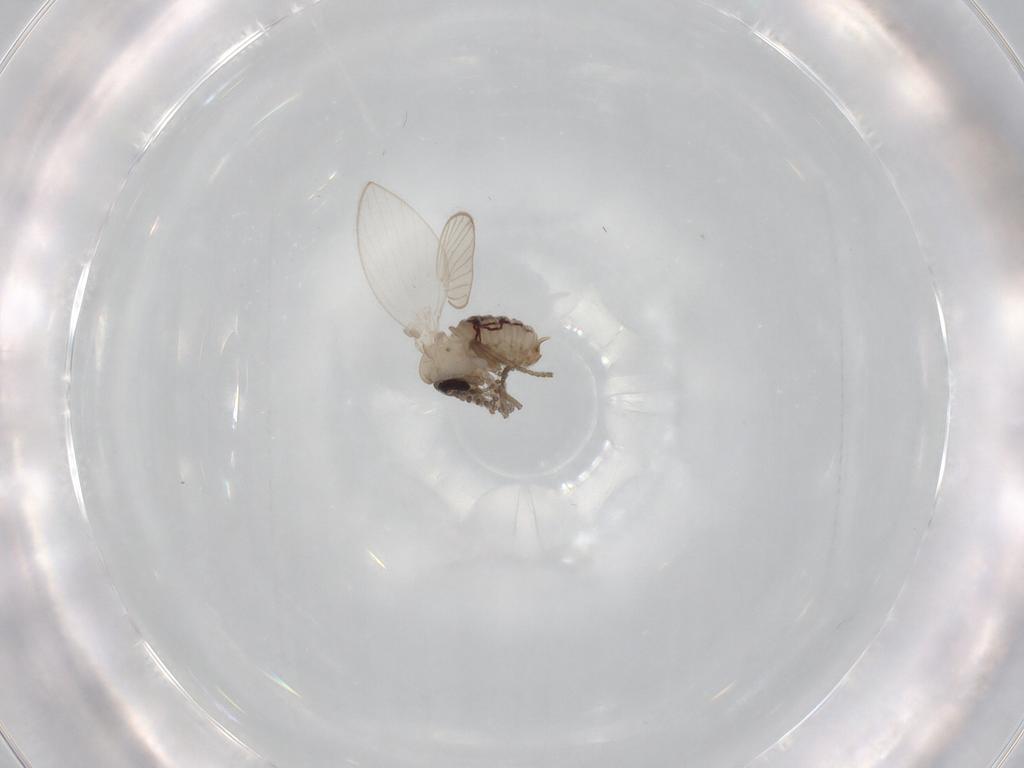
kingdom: Animalia
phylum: Arthropoda
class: Insecta
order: Diptera
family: Psychodidae
